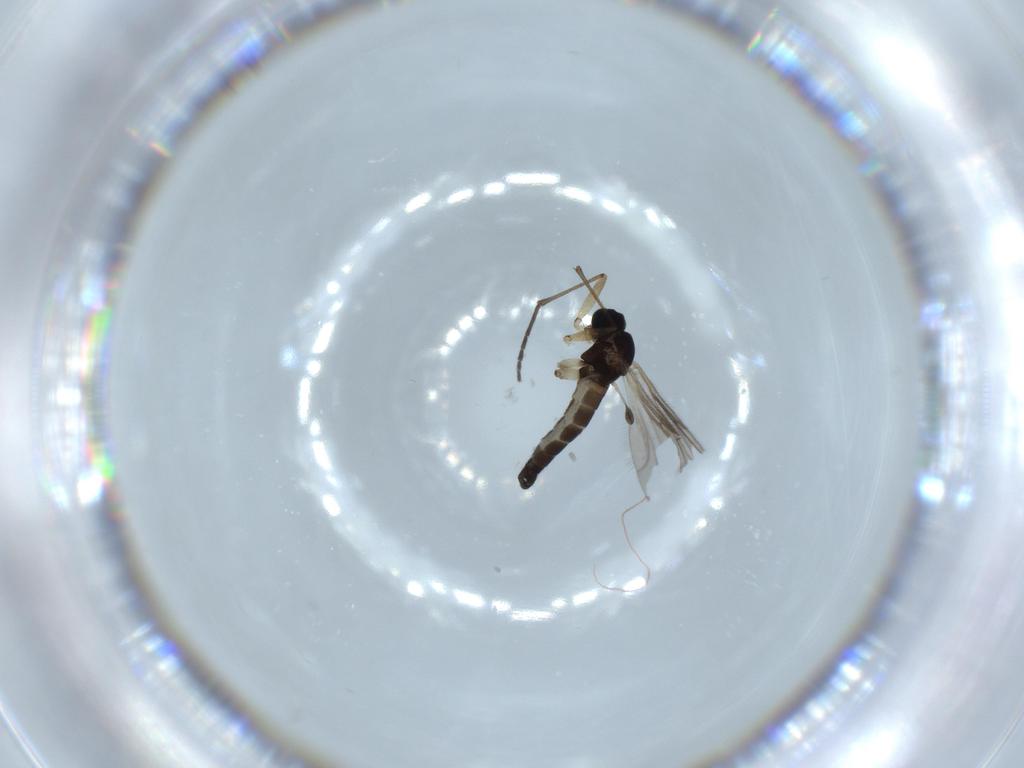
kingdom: Animalia
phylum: Arthropoda
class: Insecta
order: Diptera
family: Sciaridae
